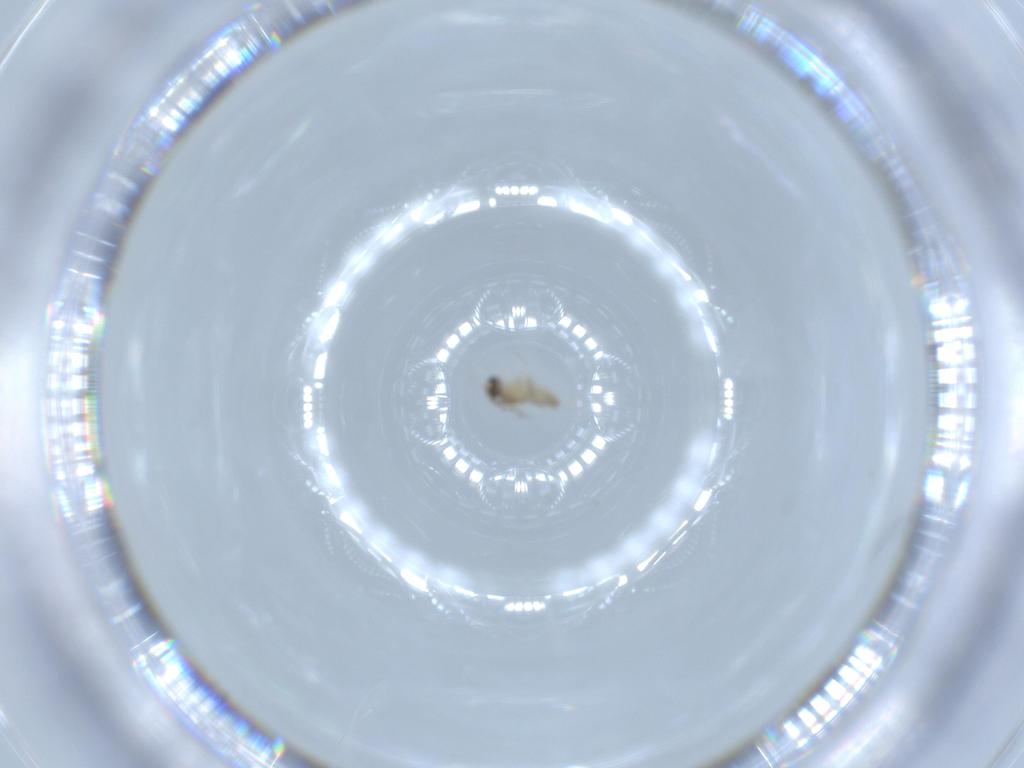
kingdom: Animalia
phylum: Arthropoda
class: Insecta
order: Diptera
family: Cecidomyiidae
